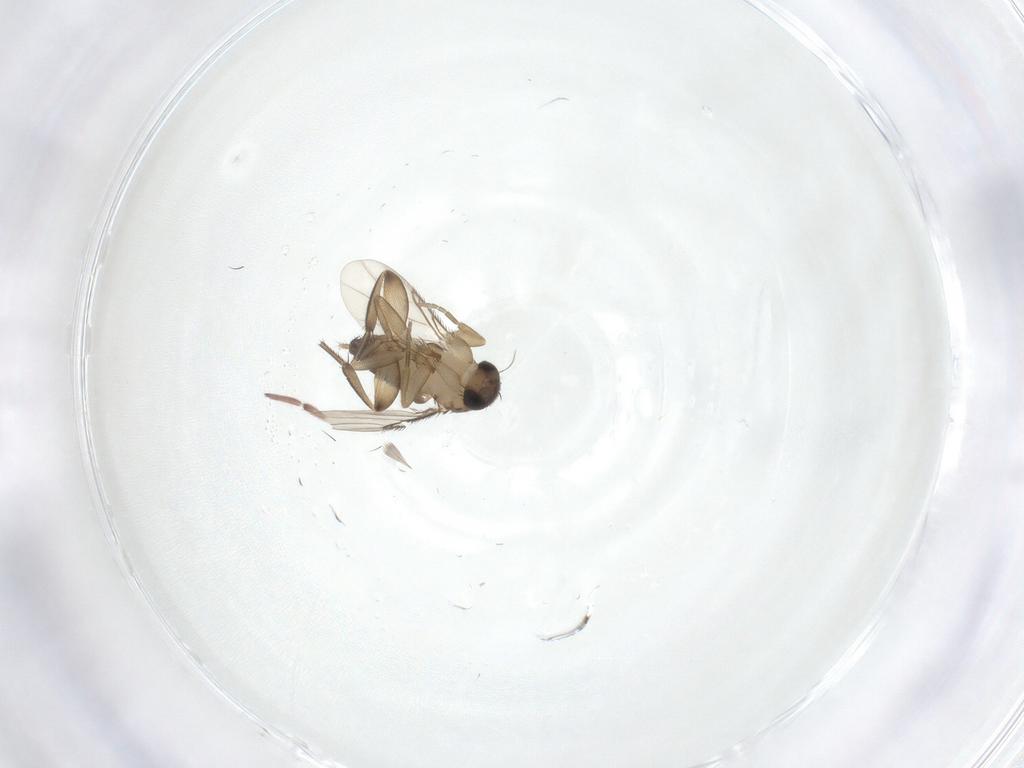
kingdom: Animalia
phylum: Arthropoda
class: Insecta
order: Diptera
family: Phoridae
